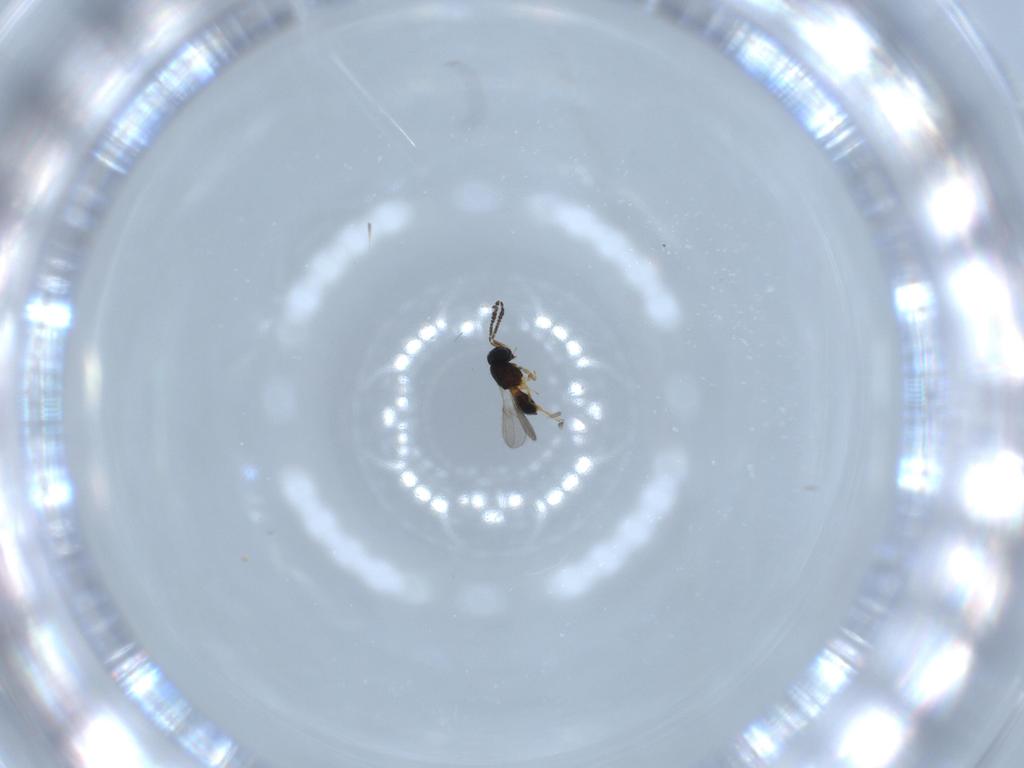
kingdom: Animalia
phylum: Arthropoda
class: Insecta
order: Hymenoptera
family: Scelionidae
